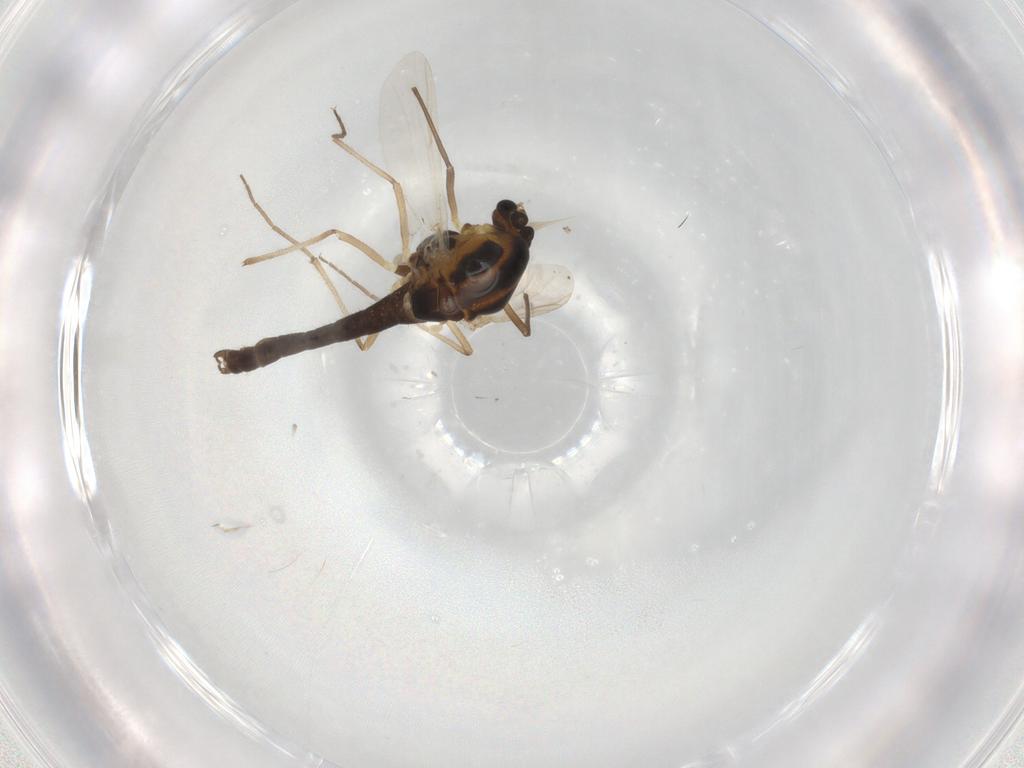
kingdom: Animalia
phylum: Arthropoda
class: Insecta
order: Diptera
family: Chironomidae
